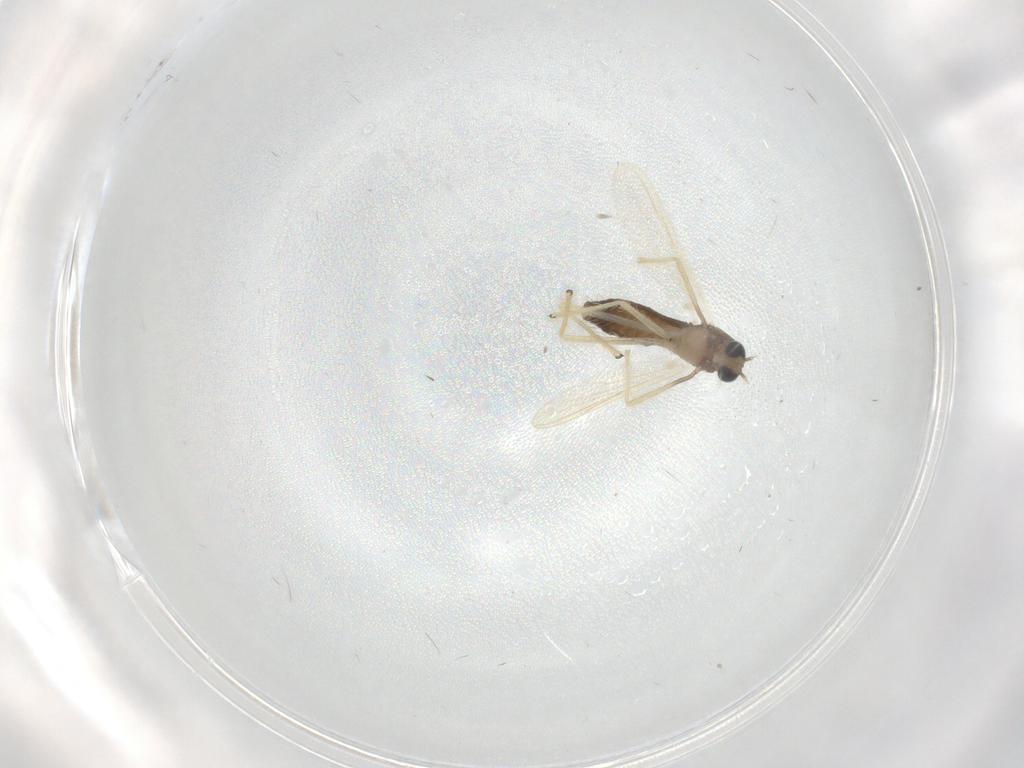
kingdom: Animalia
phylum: Arthropoda
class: Insecta
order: Diptera
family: Chironomidae
